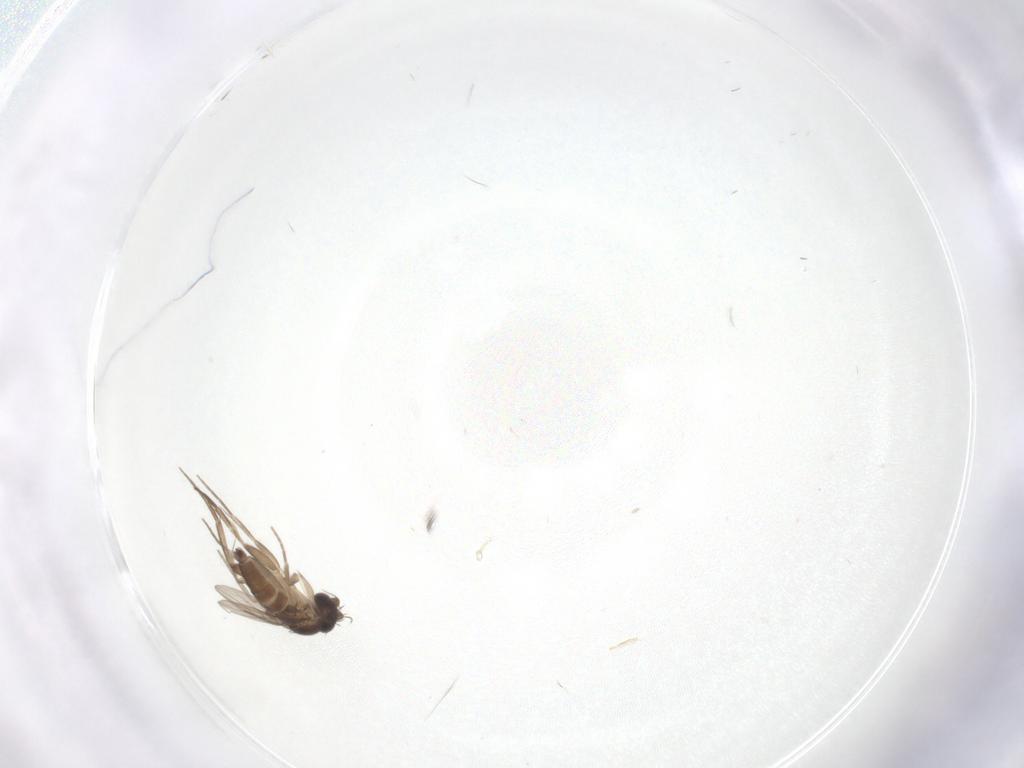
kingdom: Animalia
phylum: Arthropoda
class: Insecta
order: Diptera
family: Phoridae
